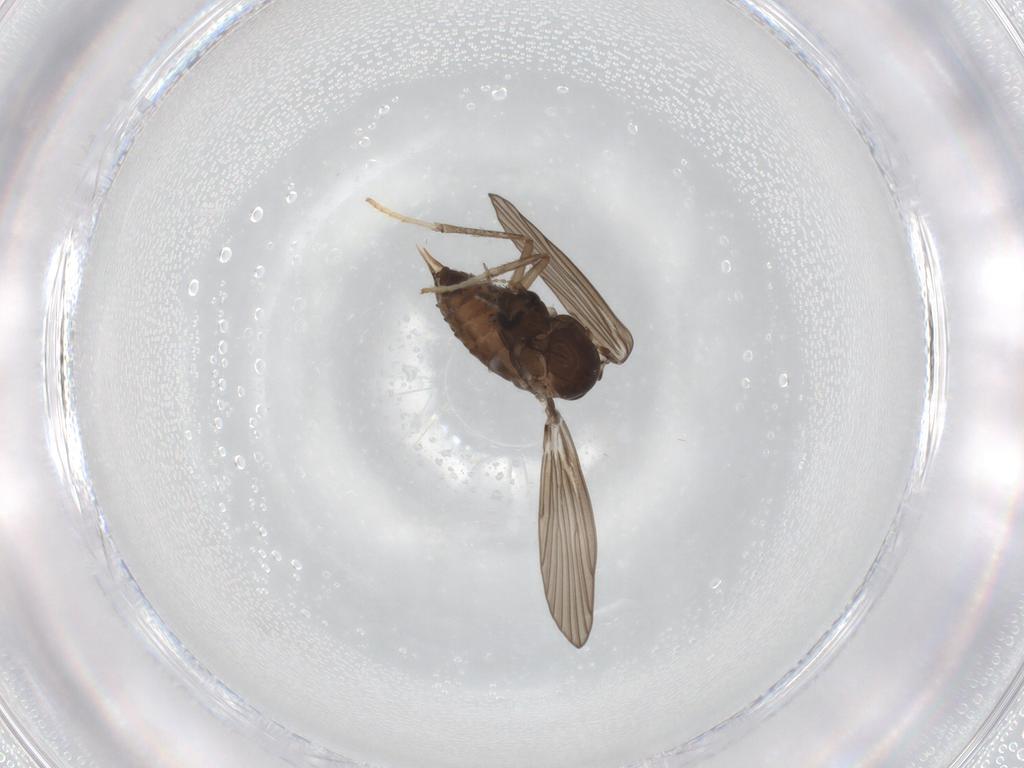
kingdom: Animalia
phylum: Arthropoda
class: Insecta
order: Diptera
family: Psychodidae
